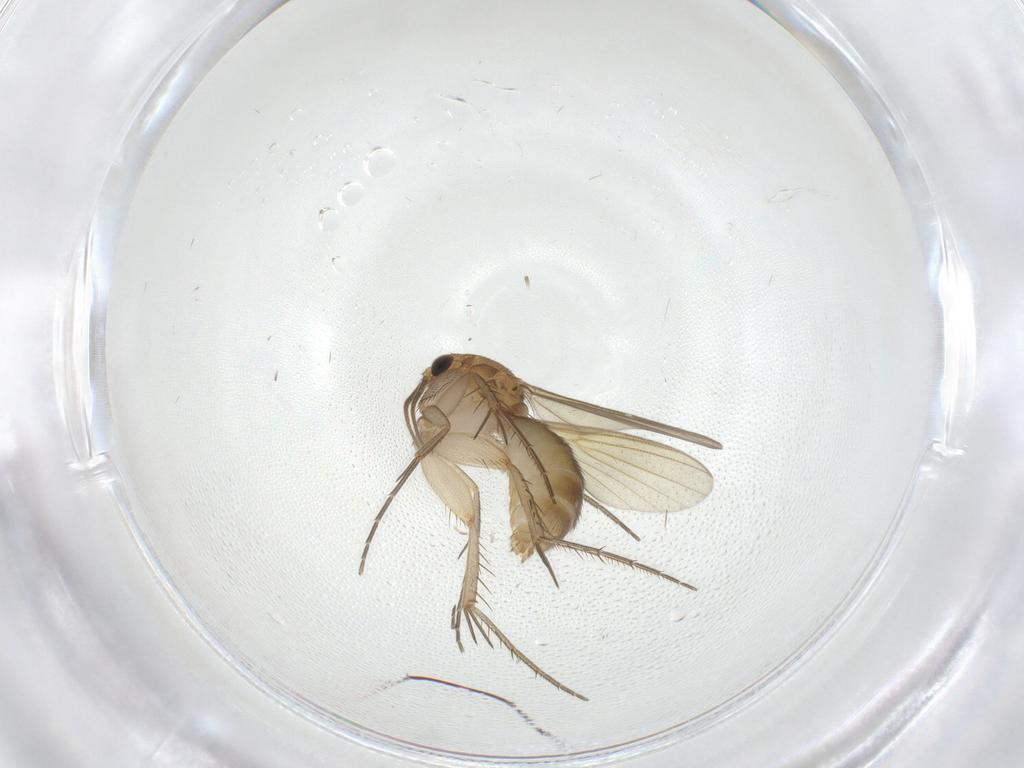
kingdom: Animalia
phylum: Arthropoda
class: Insecta
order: Diptera
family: Mycetophilidae
